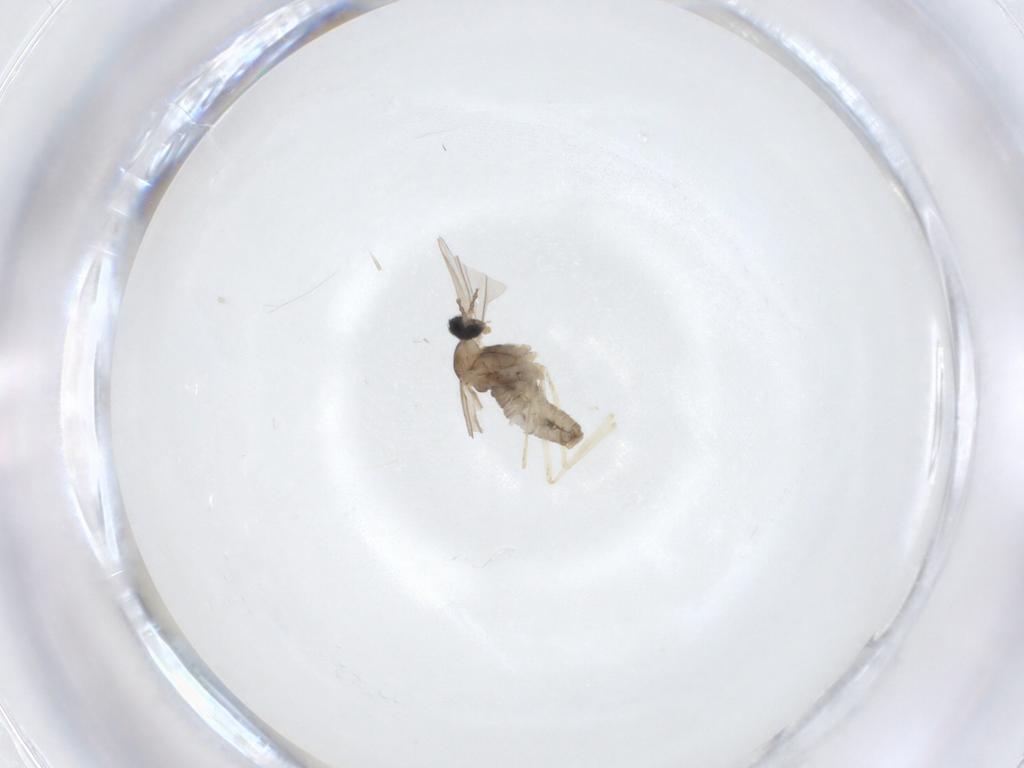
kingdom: Animalia
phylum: Arthropoda
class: Insecta
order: Diptera
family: Cecidomyiidae
